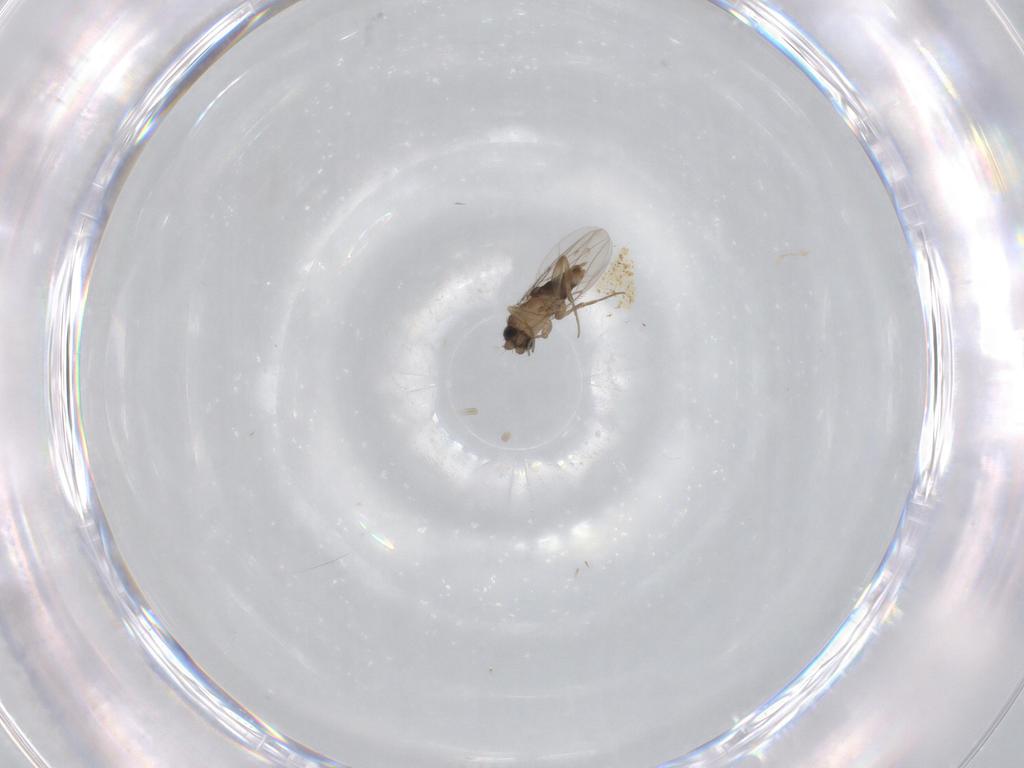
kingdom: Animalia
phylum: Arthropoda
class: Insecta
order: Diptera
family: Phoridae
